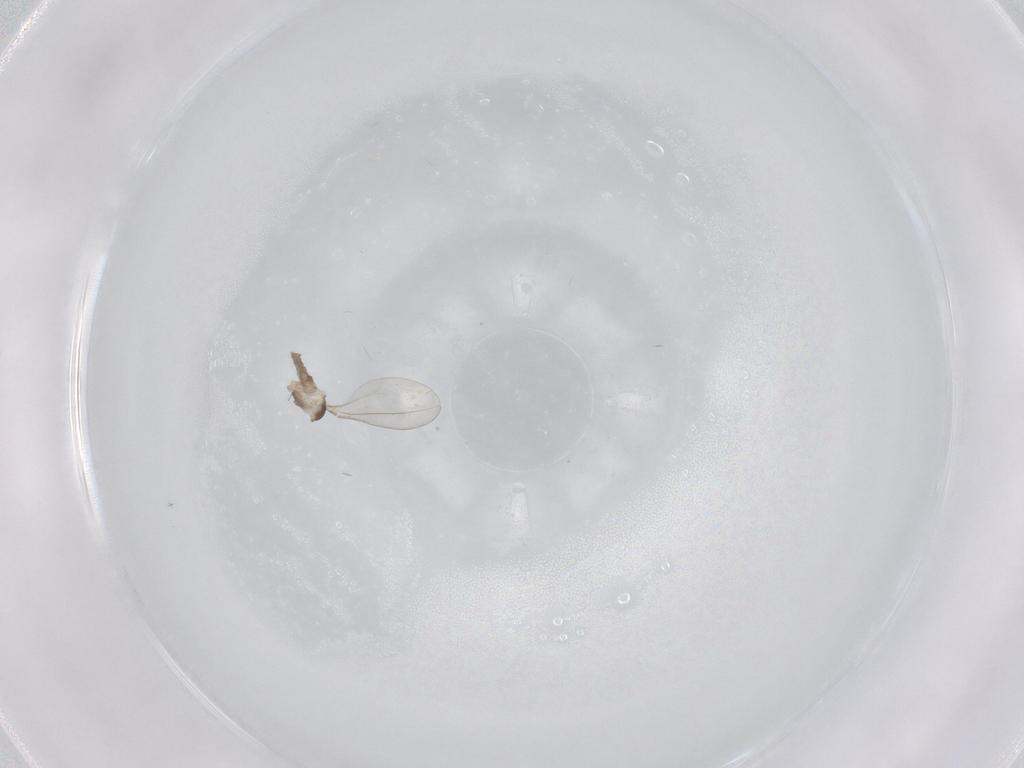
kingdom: Animalia
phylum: Arthropoda
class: Insecta
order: Diptera
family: Cecidomyiidae
